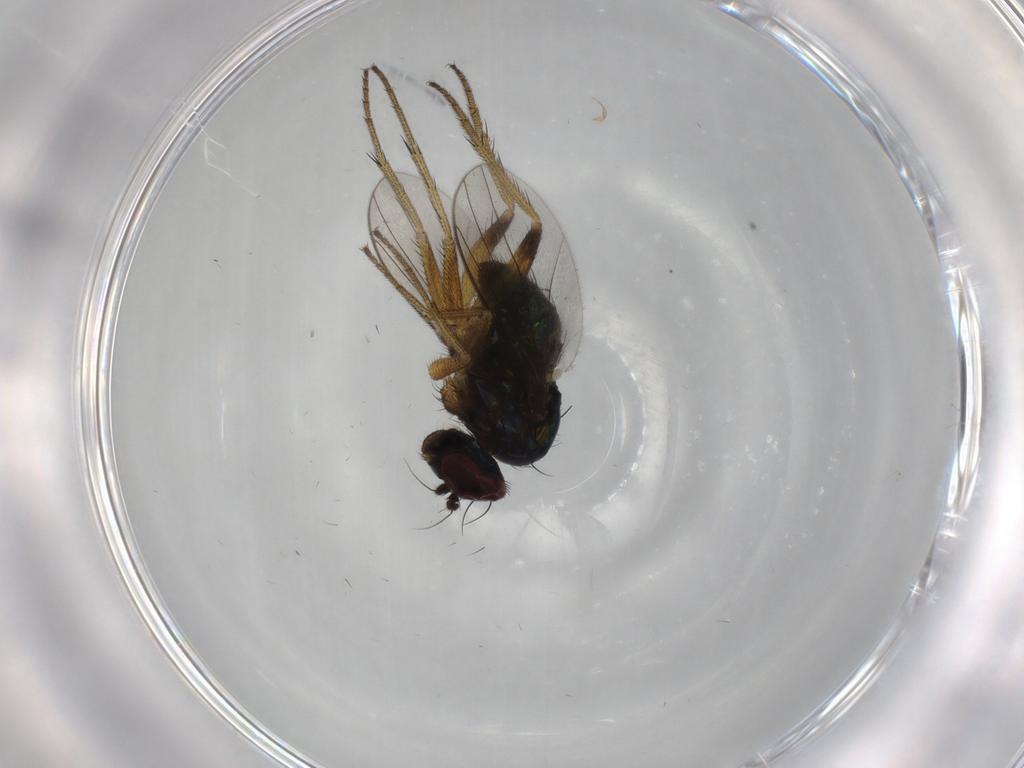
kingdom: Animalia
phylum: Arthropoda
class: Insecta
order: Diptera
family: Dolichopodidae
